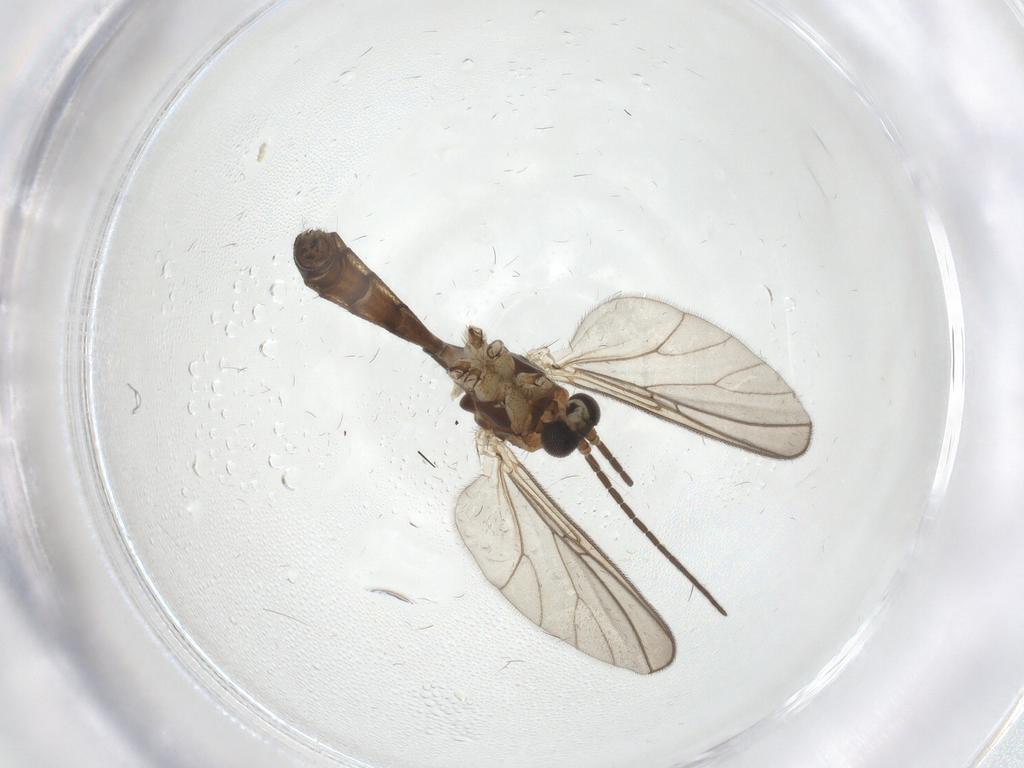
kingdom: Animalia
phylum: Arthropoda
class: Insecta
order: Diptera
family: Mycetophilidae
